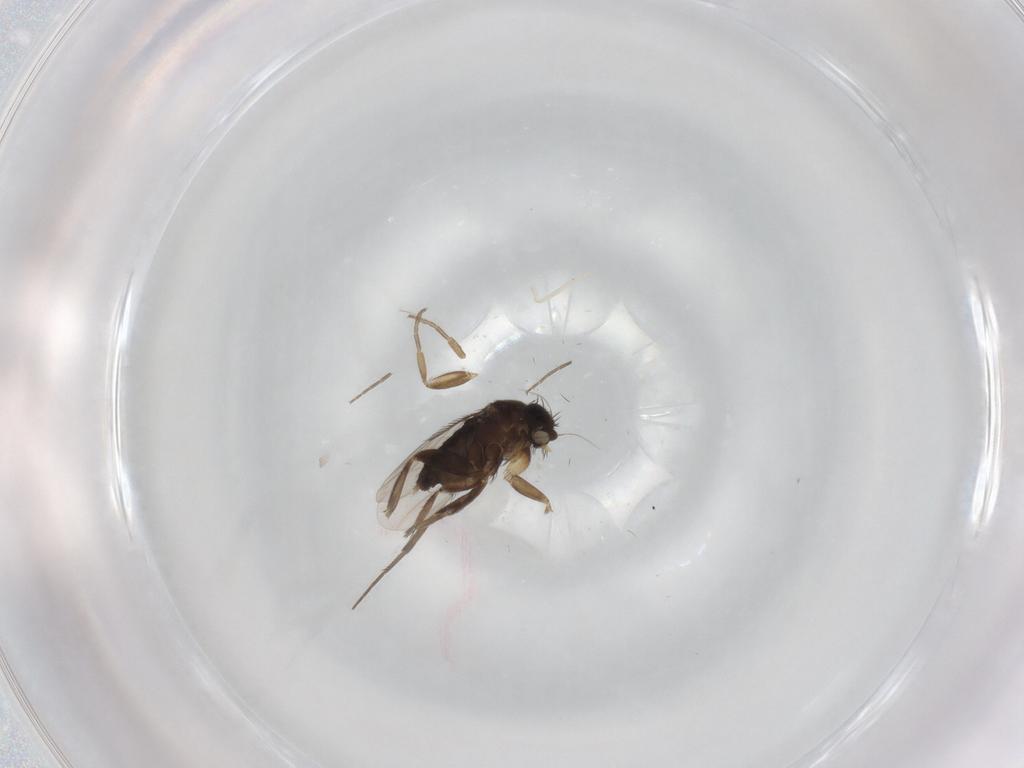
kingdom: Animalia
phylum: Arthropoda
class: Insecta
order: Diptera
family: Phoridae
